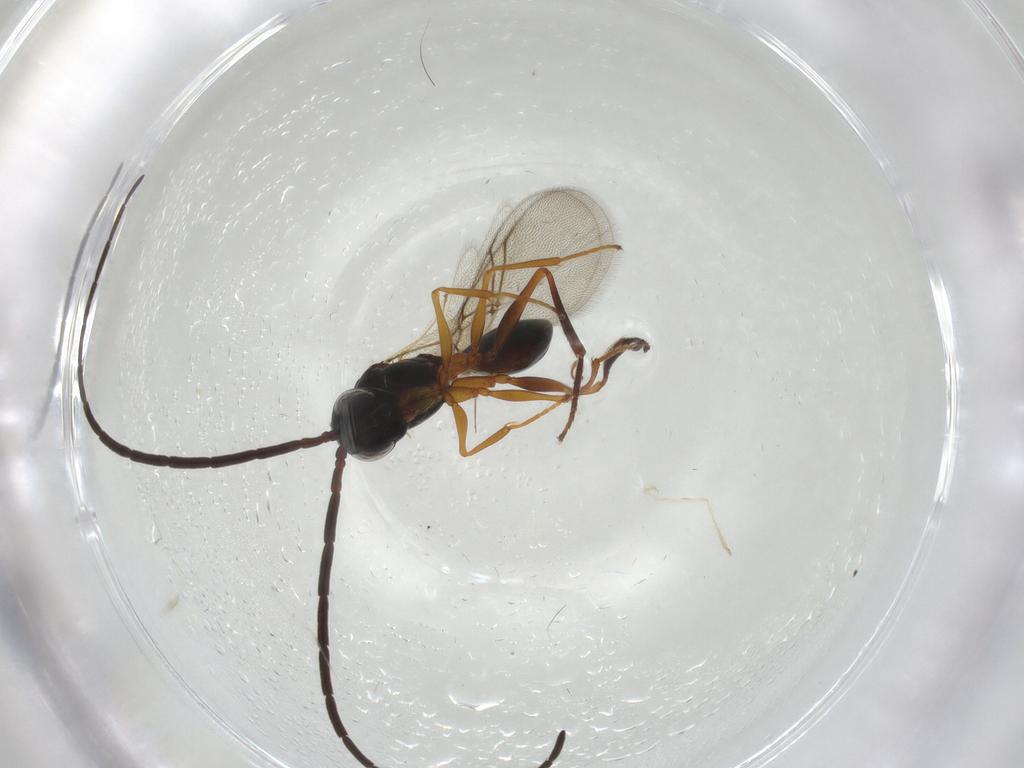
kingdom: Animalia
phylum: Arthropoda
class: Insecta
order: Hymenoptera
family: Figitidae
